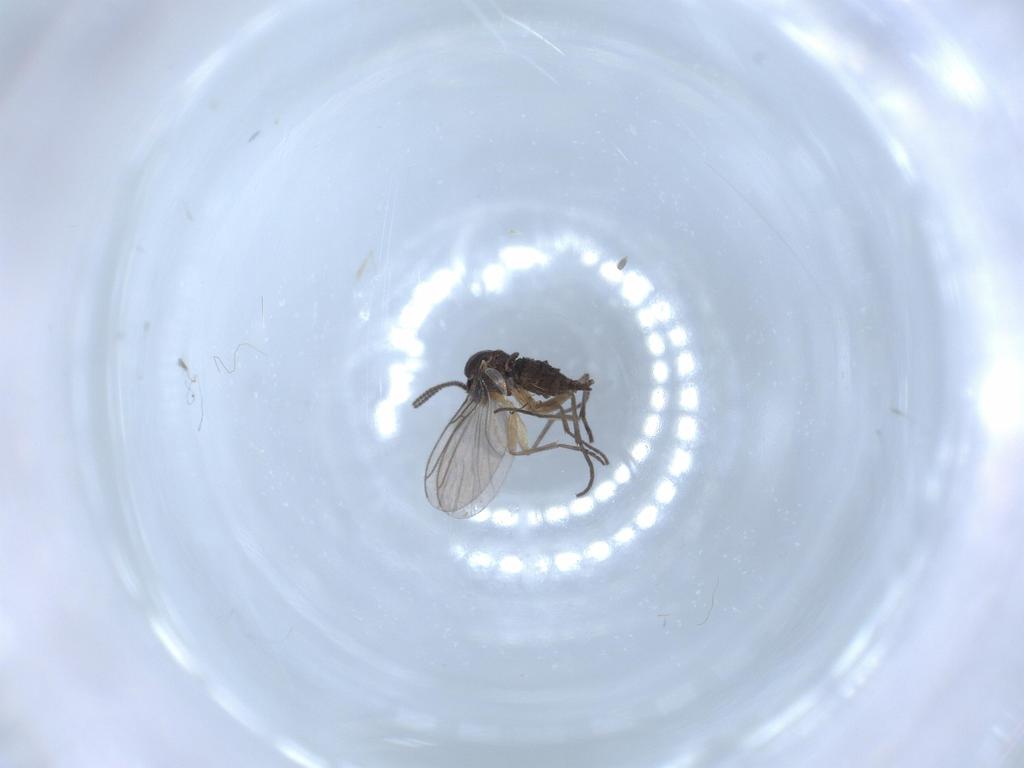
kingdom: Animalia
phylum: Arthropoda
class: Insecta
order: Diptera
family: Sciaridae
